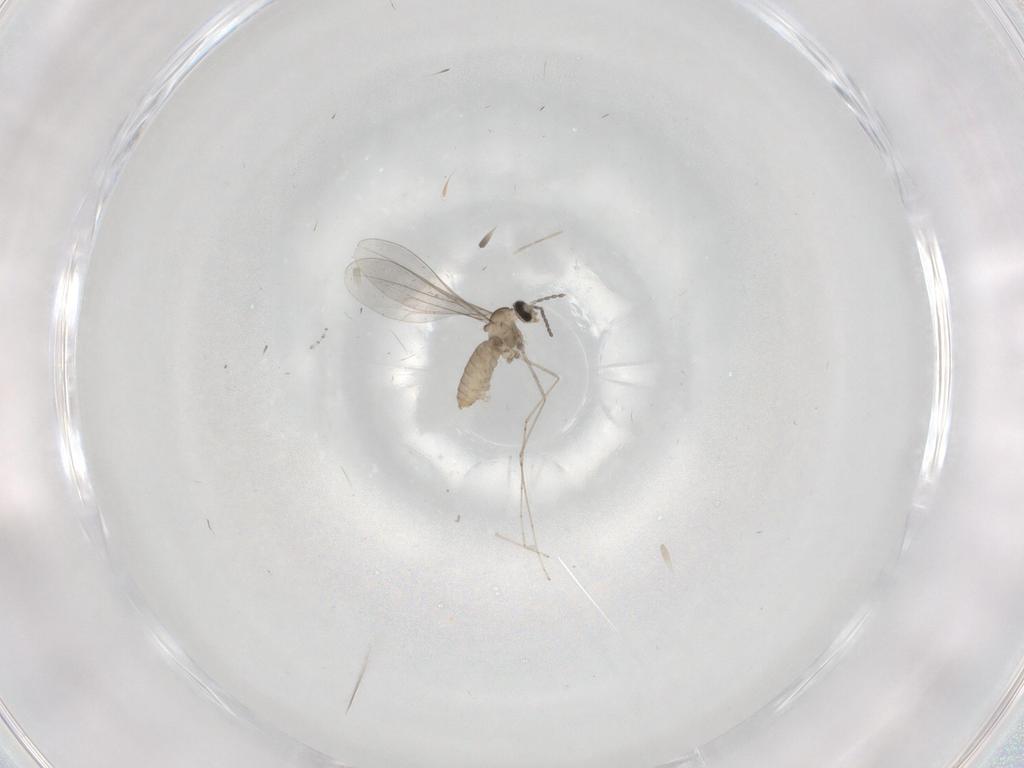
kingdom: Animalia
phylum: Arthropoda
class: Insecta
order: Diptera
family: Cecidomyiidae
